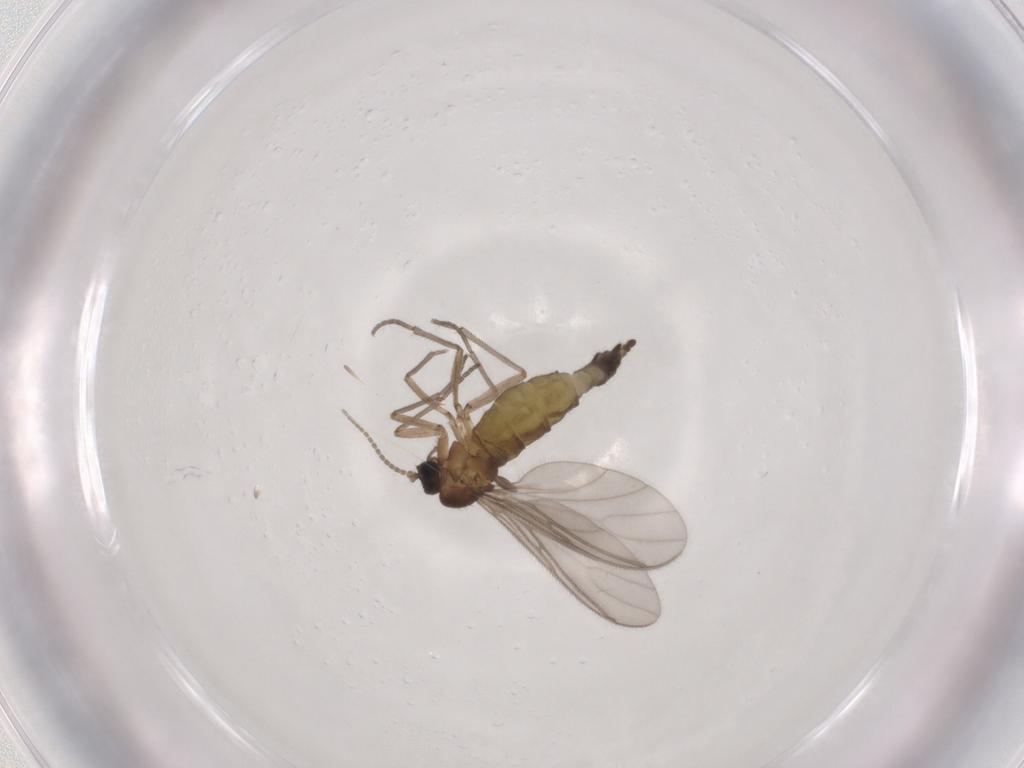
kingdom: Animalia
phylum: Arthropoda
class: Insecta
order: Diptera
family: Sciaridae
